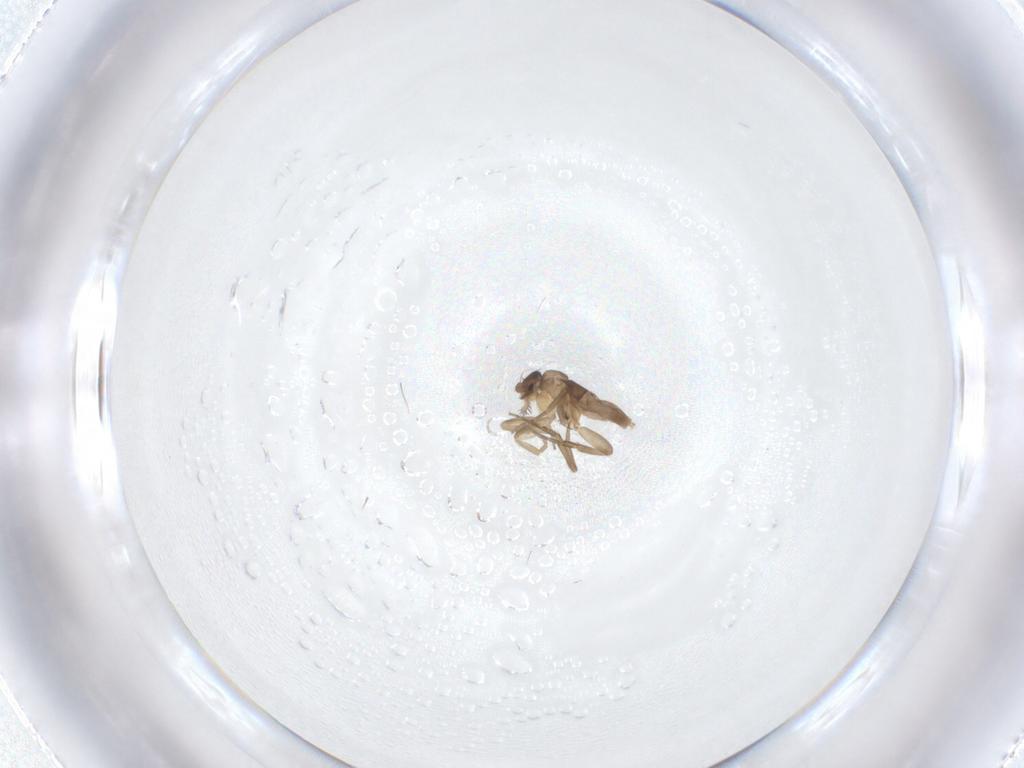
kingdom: Animalia
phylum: Arthropoda
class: Insecta
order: Diptera
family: Phoridae
